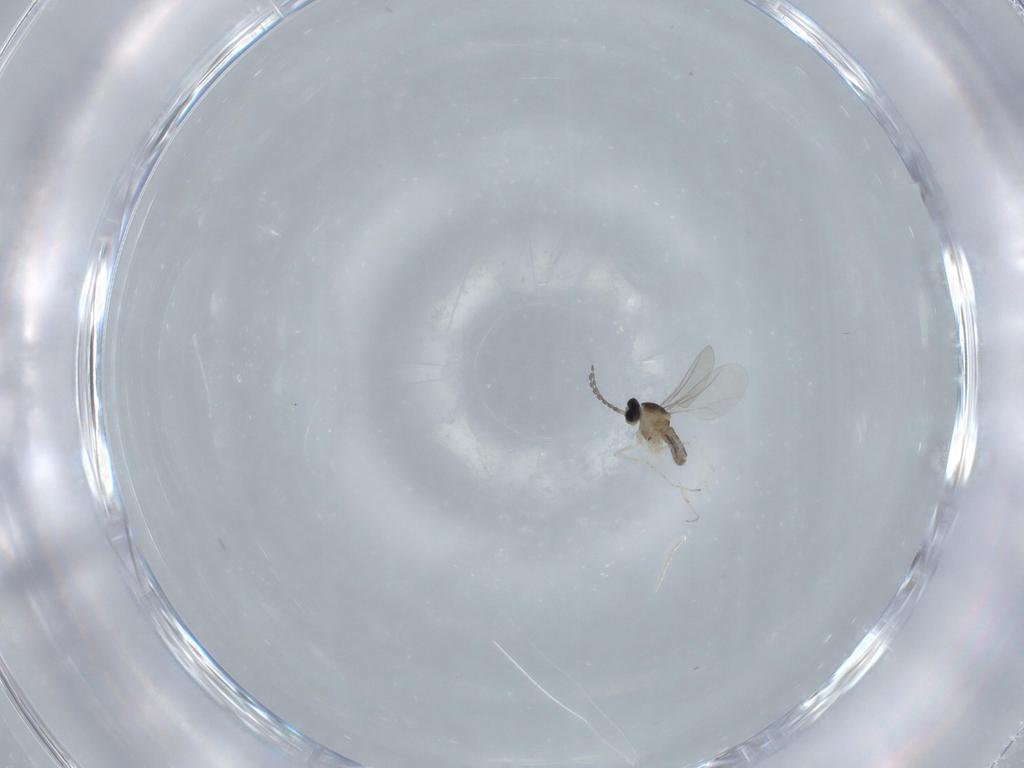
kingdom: Animalia
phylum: Arthropoda
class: Insecta
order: Diptera
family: Cecidomyiidae
